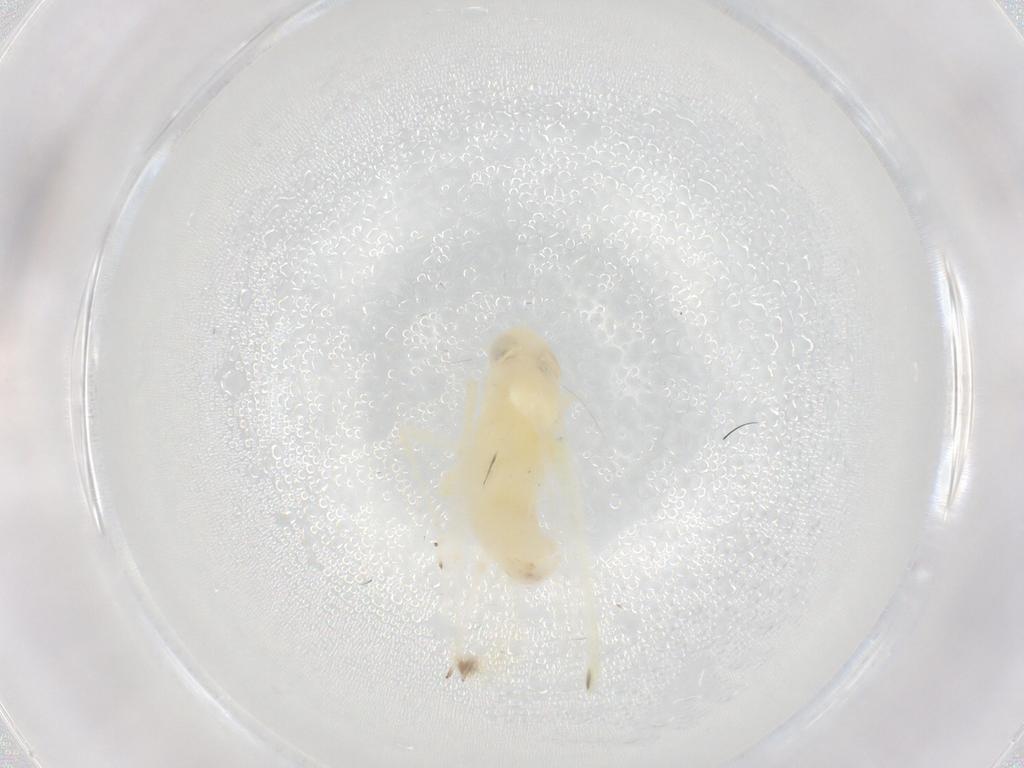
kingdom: Animalia
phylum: Arthropoda
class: Insecta
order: Hemiptera
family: Cicadellidae
